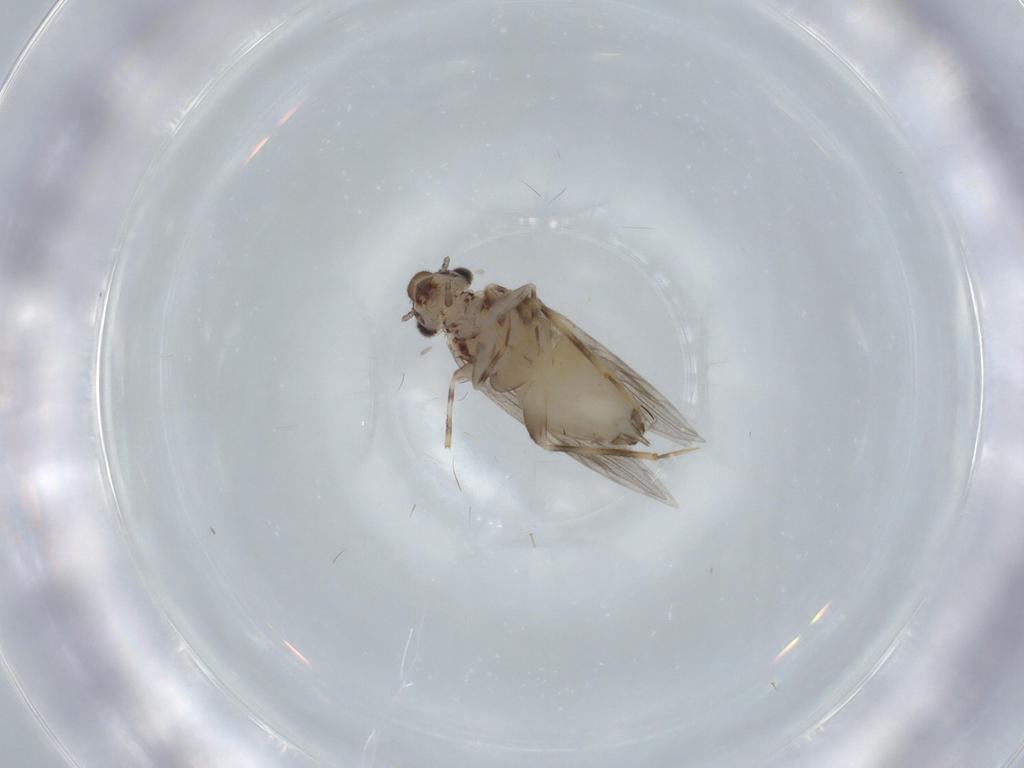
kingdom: Animalia
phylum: Arthropoda
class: Insecta
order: Psocodea
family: Lepidopsocidae
